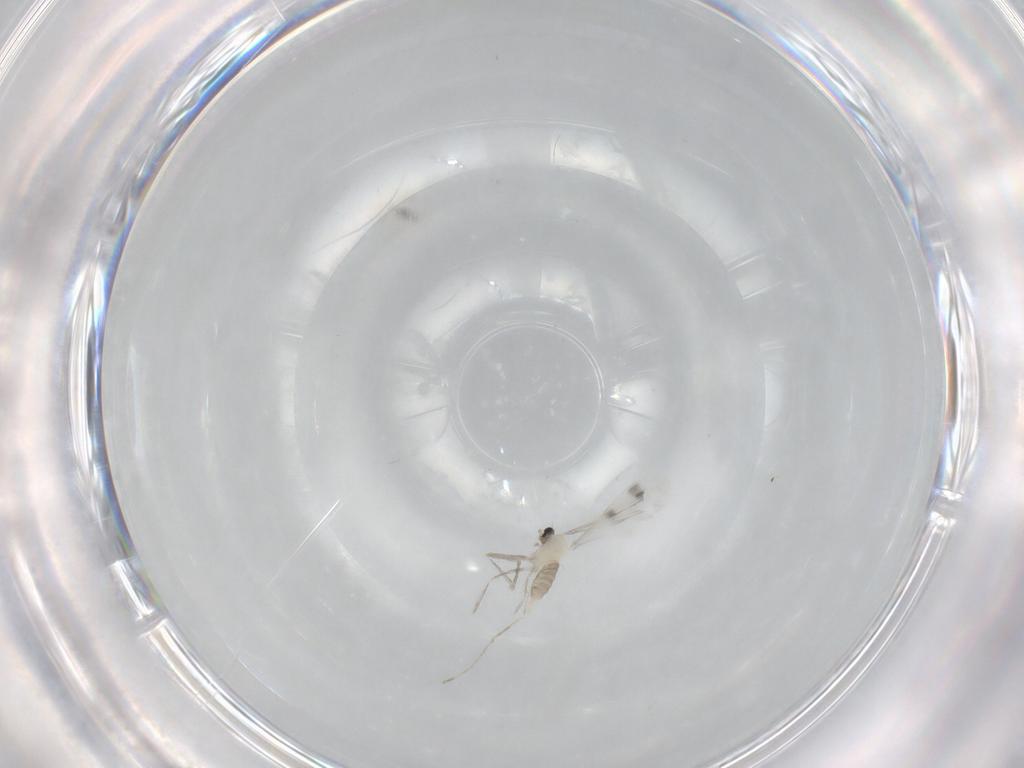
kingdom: Animalia
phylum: Arthropoda
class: Insecta
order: Diptera
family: Cecidomyiidae
